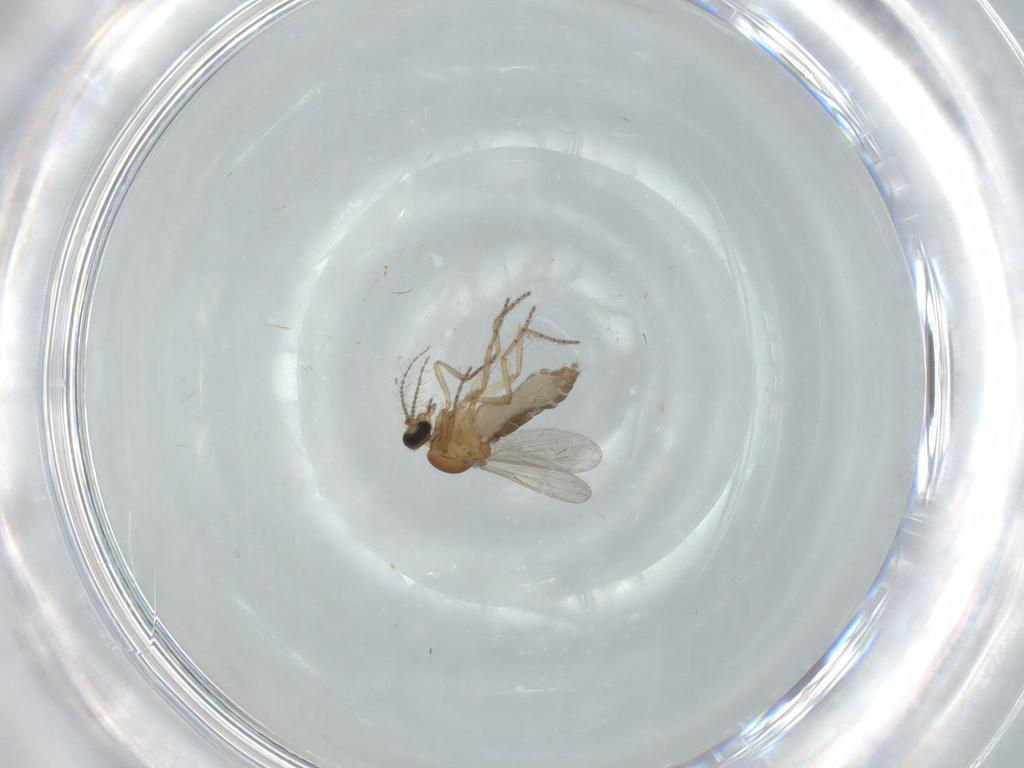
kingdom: Animalia
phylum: Arthropoda
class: Insecta
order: Diptera
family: Ceratopogonidae
